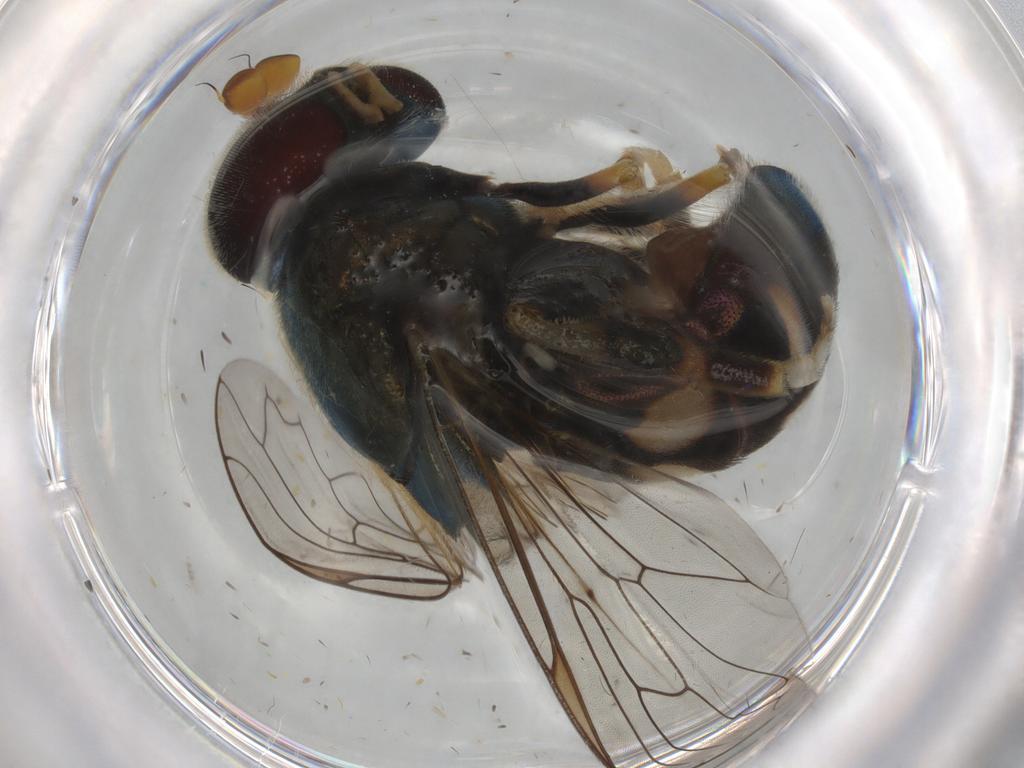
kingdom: Animalia
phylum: Arthropoda
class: Insecta
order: Diptera
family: Syrphidae
